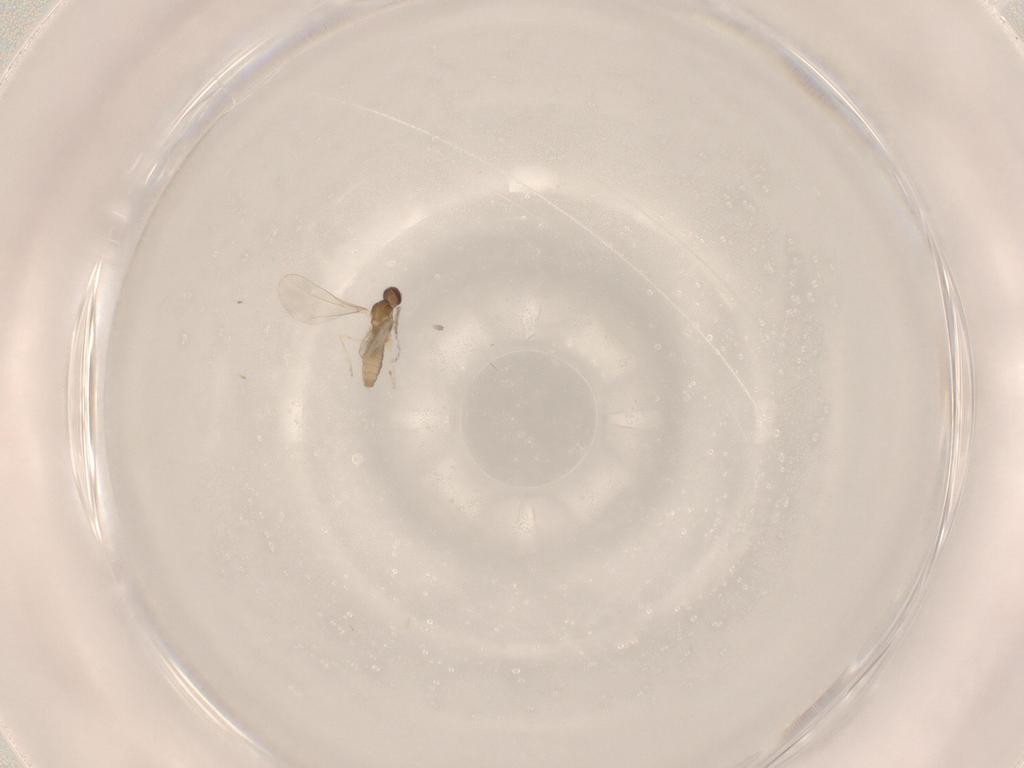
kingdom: Animalia
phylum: Arthropoda
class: Insecta
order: Diptera
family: Cecidomyiidae
